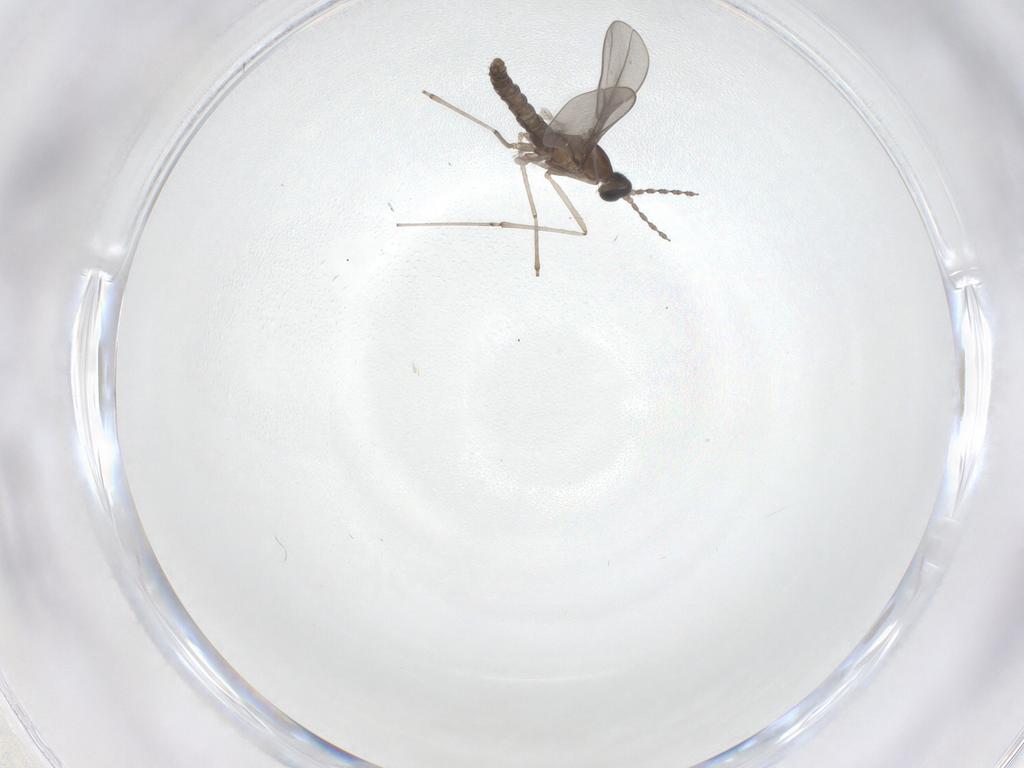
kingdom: Animalia
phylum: Arthropoda
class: Insecta
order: Diptera
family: Cecidomyiidae
